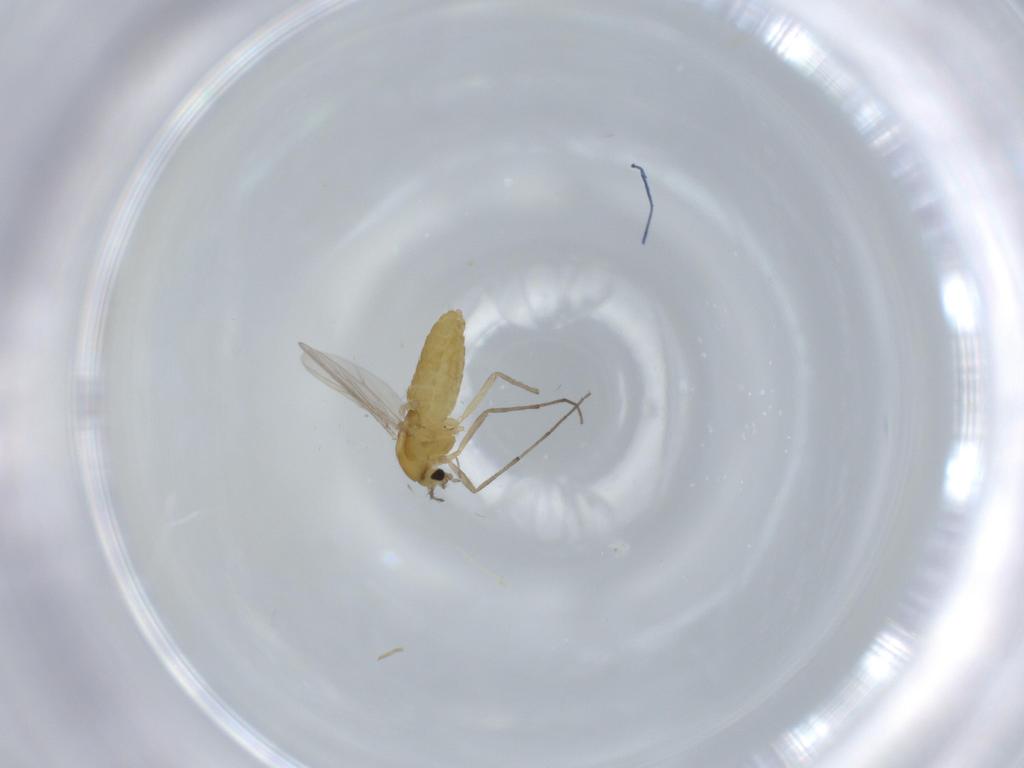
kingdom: Animalia
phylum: Arthropoda
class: Insecta
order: Diptera
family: Chironomidae
